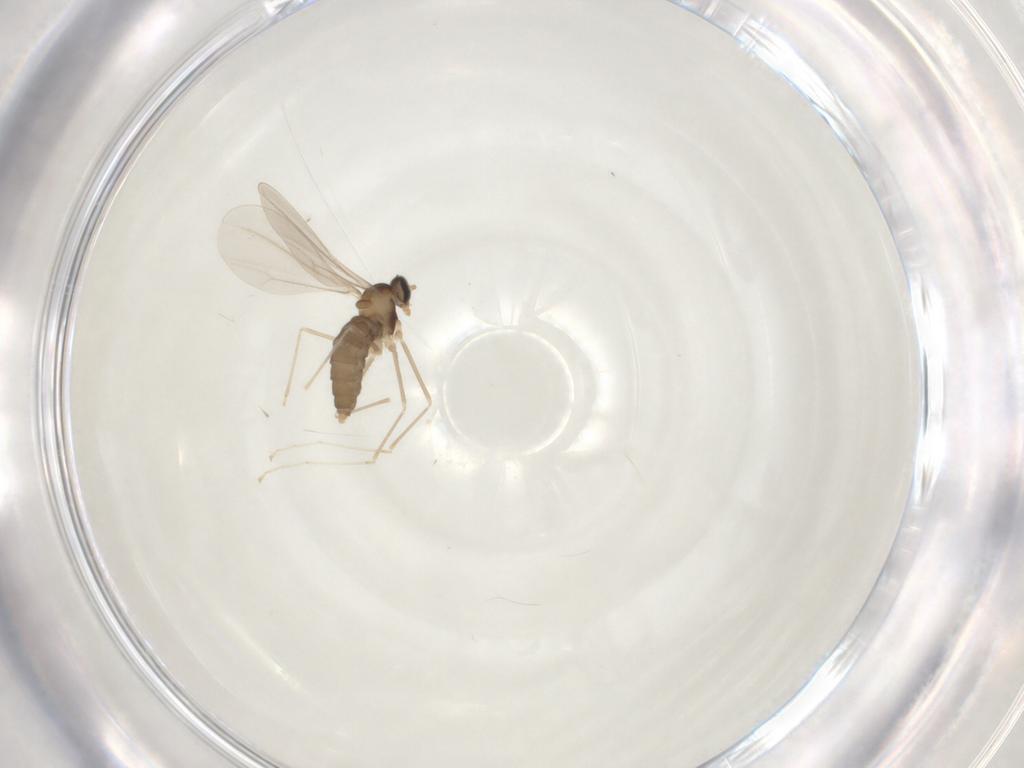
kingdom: Animalia
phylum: Arthropoda
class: Insecta
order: Diptera
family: Cecidomyiidae
